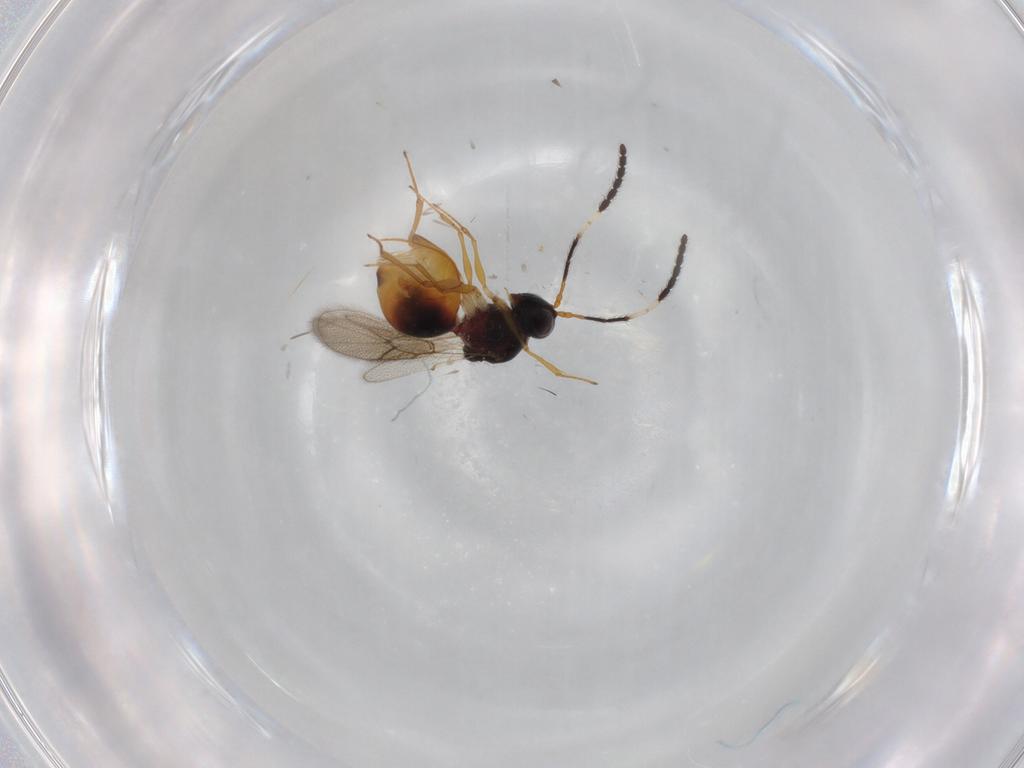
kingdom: Animalia
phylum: Arthropoda
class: Insecta
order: Hymenoptera
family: Figitidae
